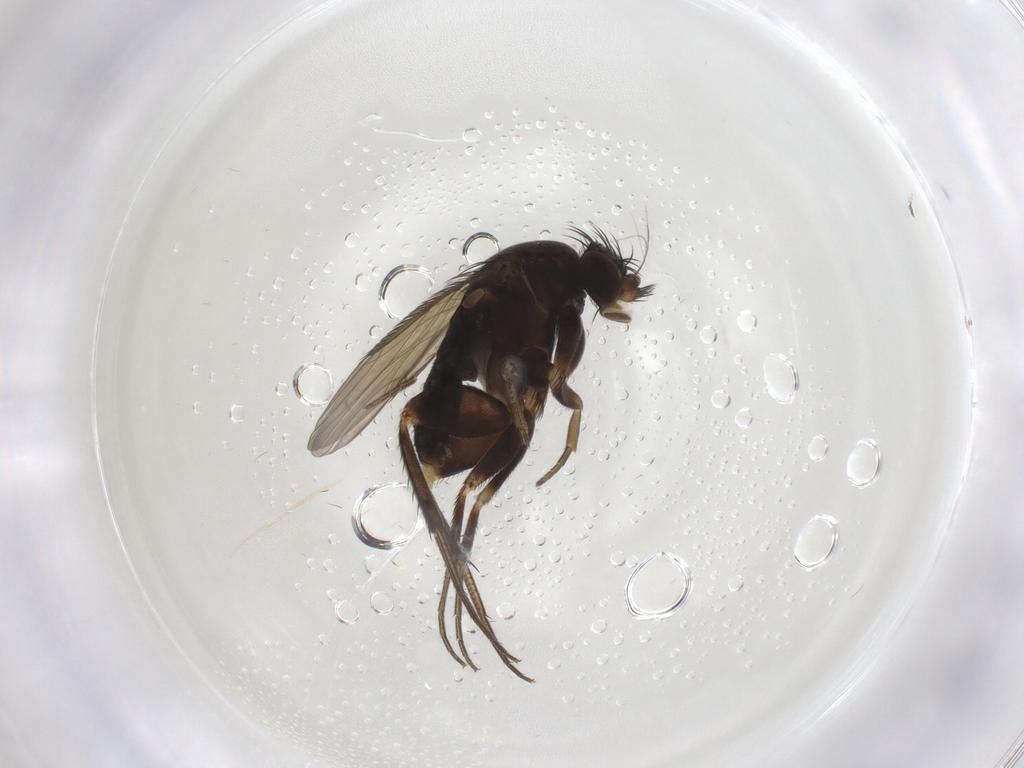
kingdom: Animalia
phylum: Arthropoda
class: Insecta
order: Diptera
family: Phoridae
